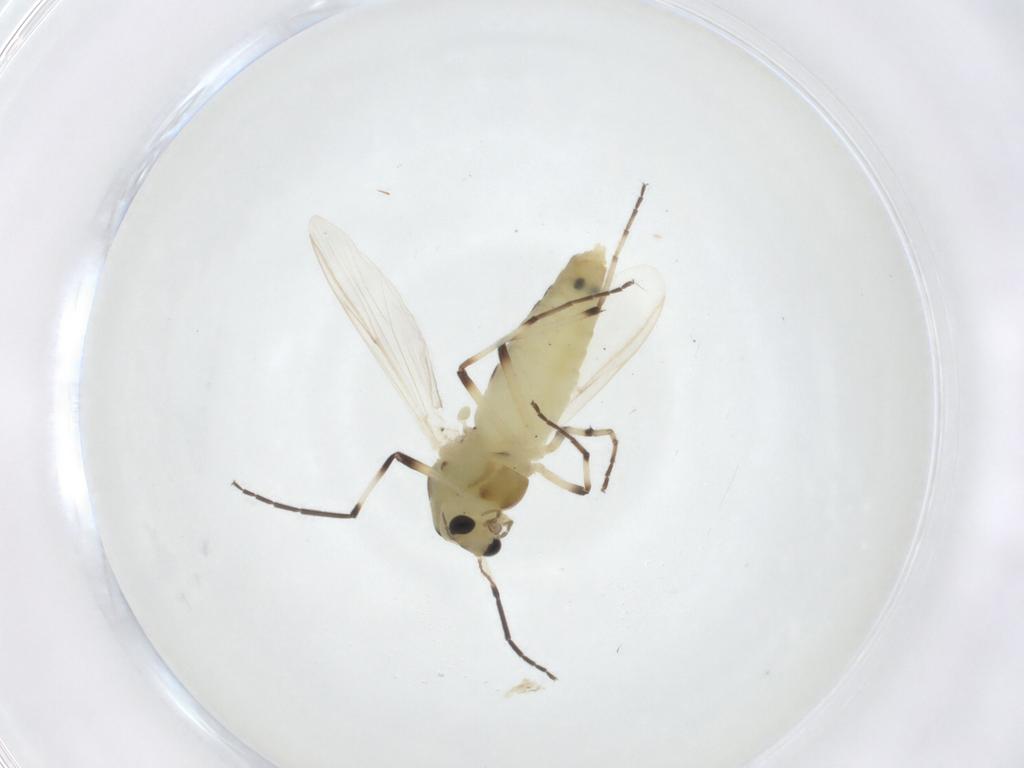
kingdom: Animalia
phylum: Arthropoda
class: Insecta
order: Diptera
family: Chironomidae
